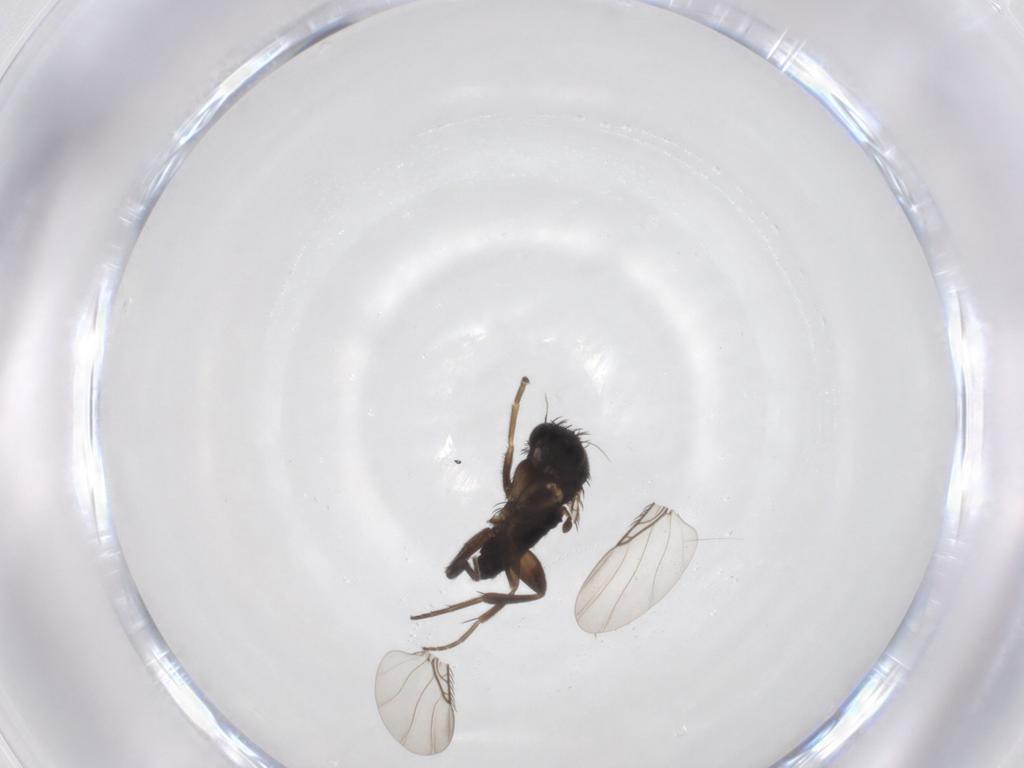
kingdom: Animalia
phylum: Arthropoda
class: Insecta
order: Diptera
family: Phoridae
